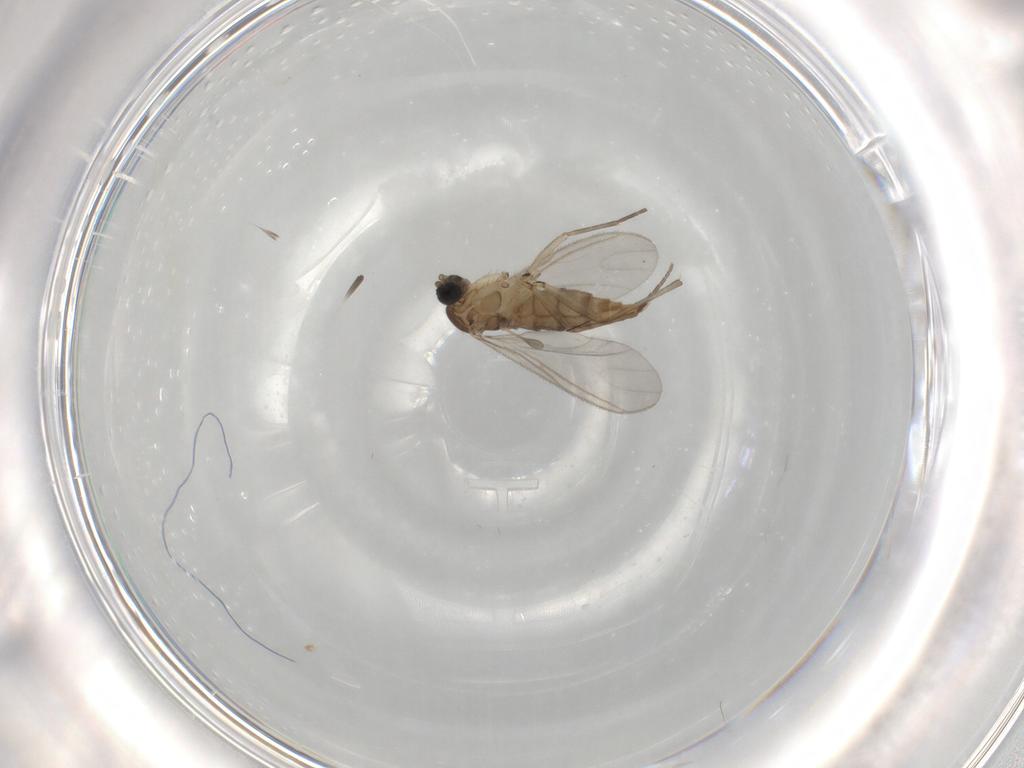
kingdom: Animalia
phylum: Arthropoda
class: Insecta
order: Diptera
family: Sciaridae
